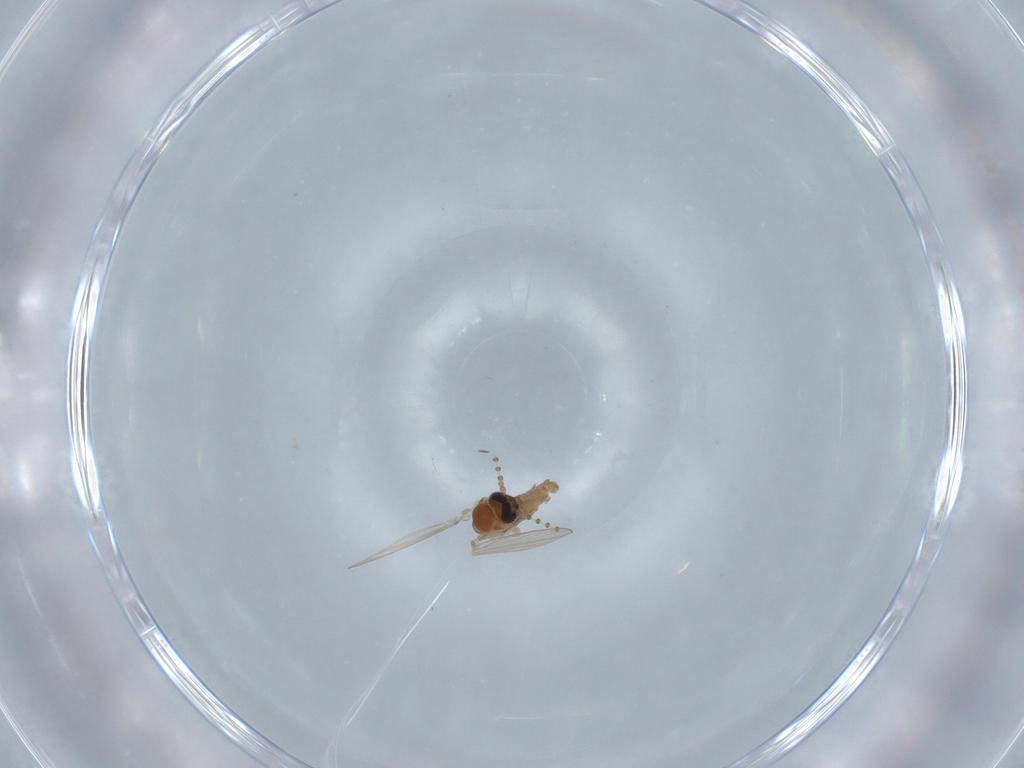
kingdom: Animalia
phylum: Arthropoda
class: Insecta
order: Diptera
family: Psychodidae
